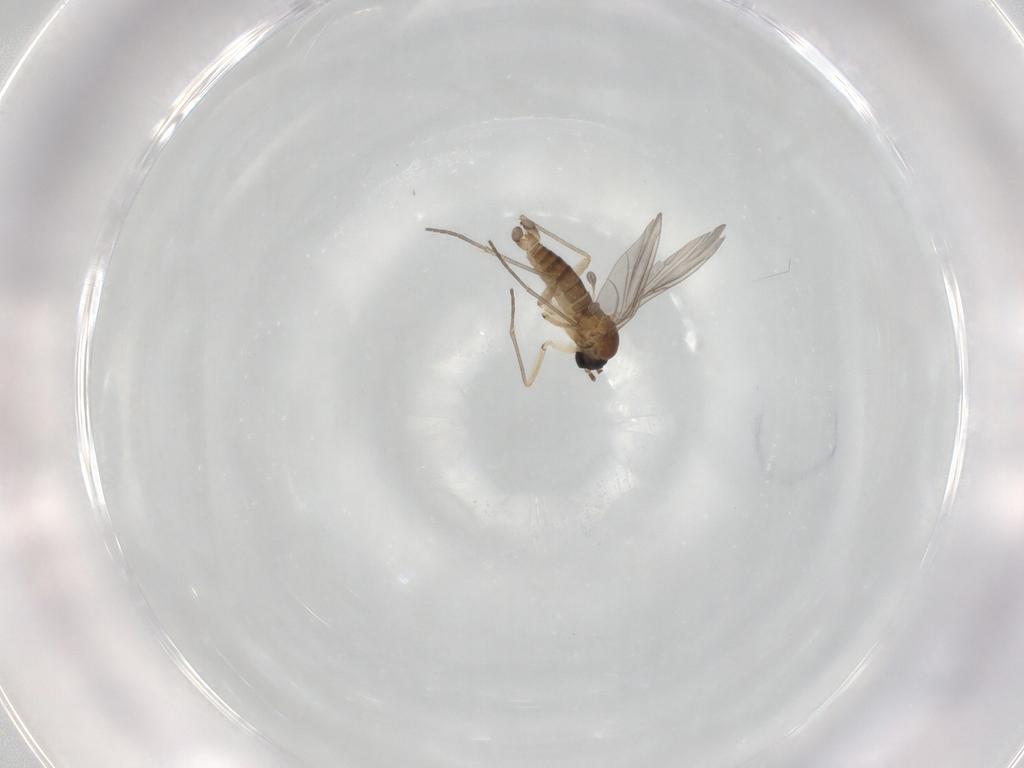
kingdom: Animalia
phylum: Arthropoda
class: Insecta
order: Diptera
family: Sciaridae
